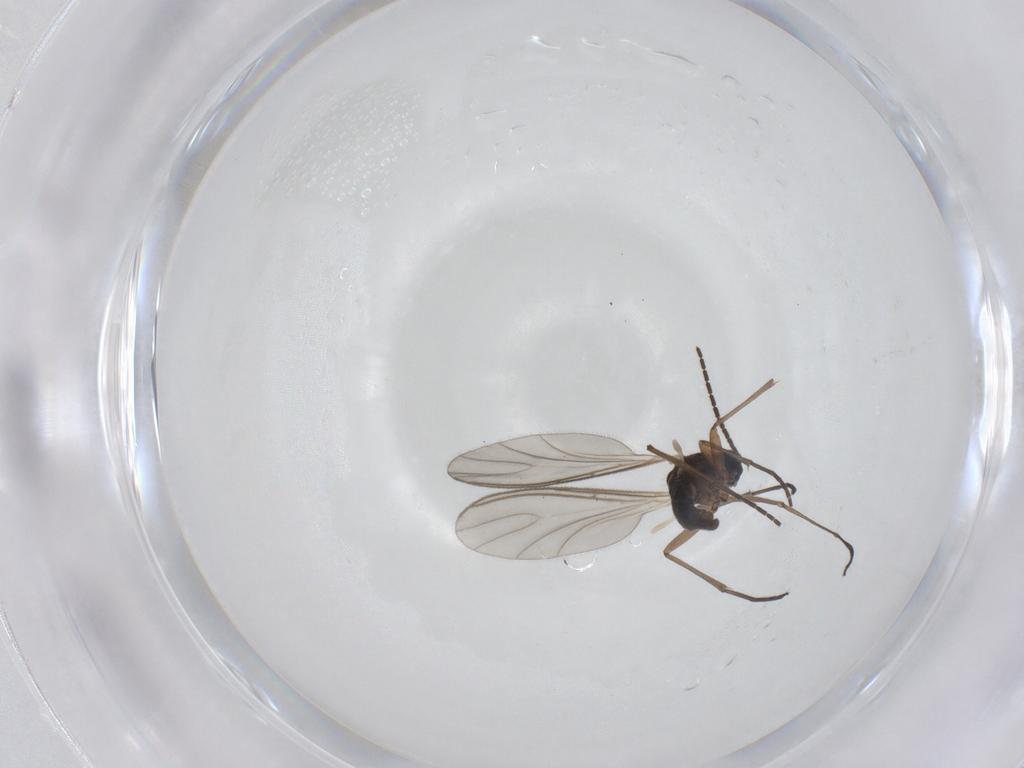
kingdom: Animalia
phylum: Arthropoda
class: Insecta
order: Diptera
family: Sciaridae
